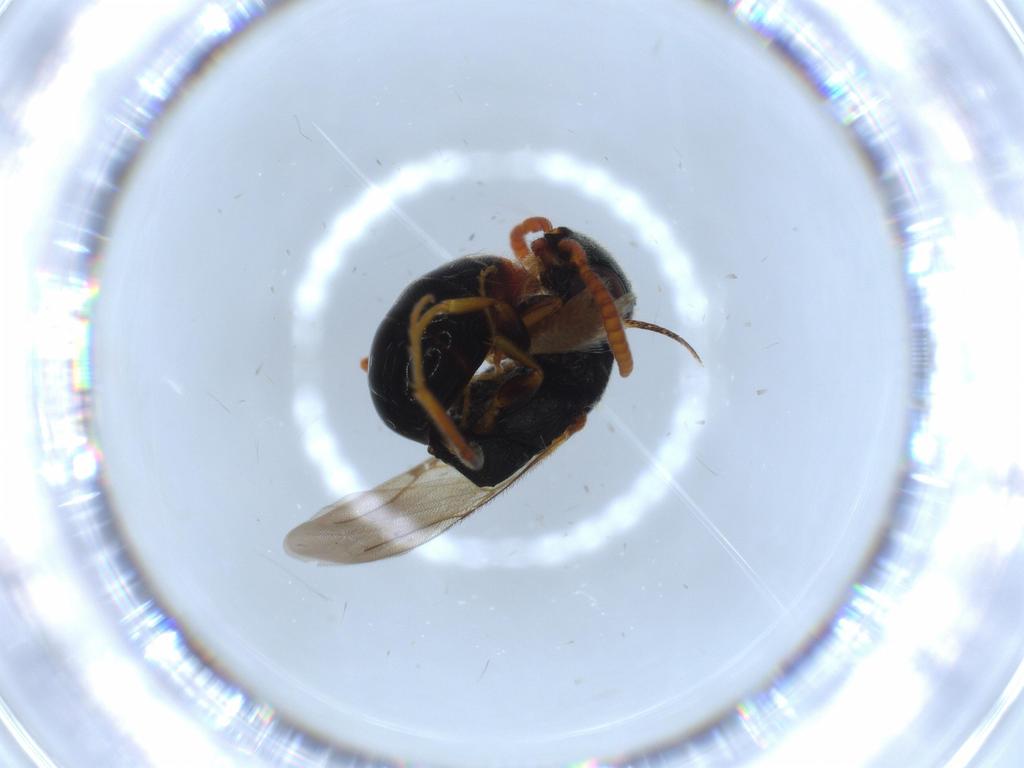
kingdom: Animalia
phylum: Arthropoda
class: Insecta
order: Hymenoptera
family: Bethylidae
